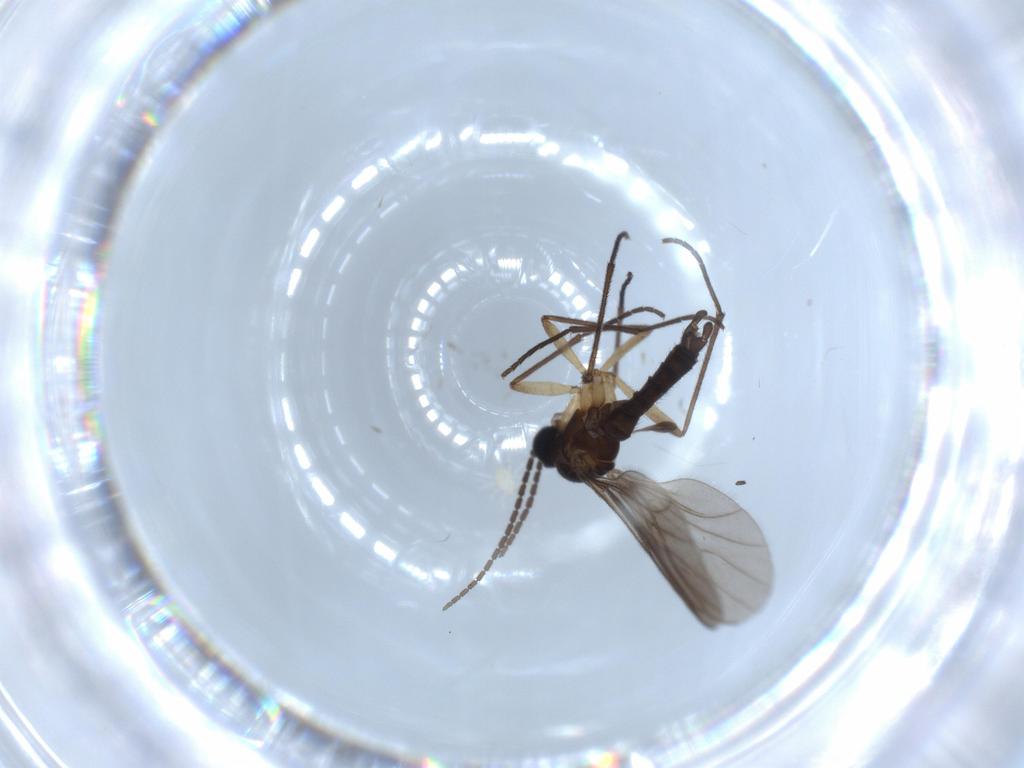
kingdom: Animalia
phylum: Arthropoda
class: Insecta
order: Diptera
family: Sciaridae
